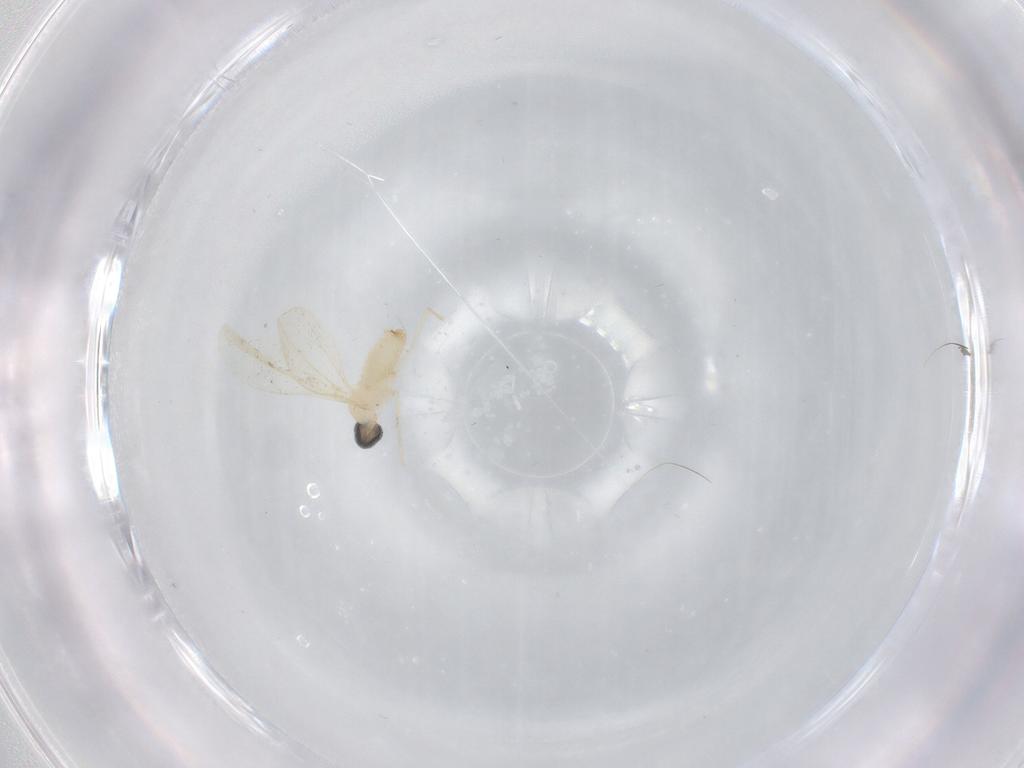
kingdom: Animalia
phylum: Arthropoda
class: Insecta
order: Diptera
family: Cecidomyiidae
